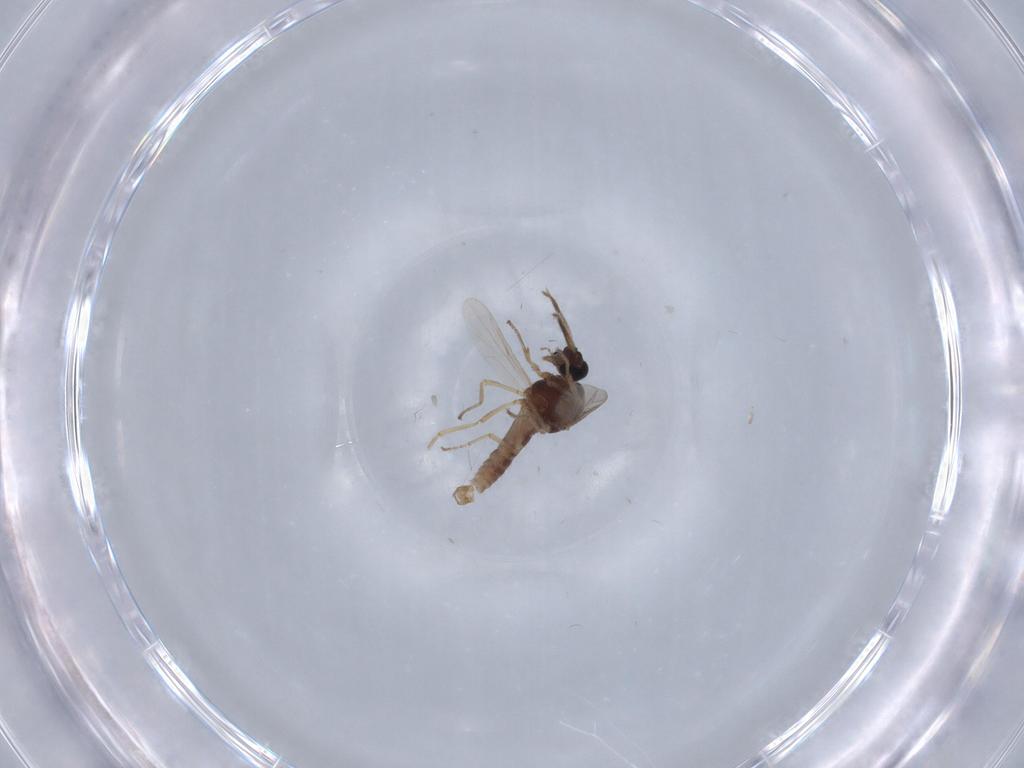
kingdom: Animalia
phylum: Arthropoda
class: Insecta
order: Diptera
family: Ceratopogonidae
